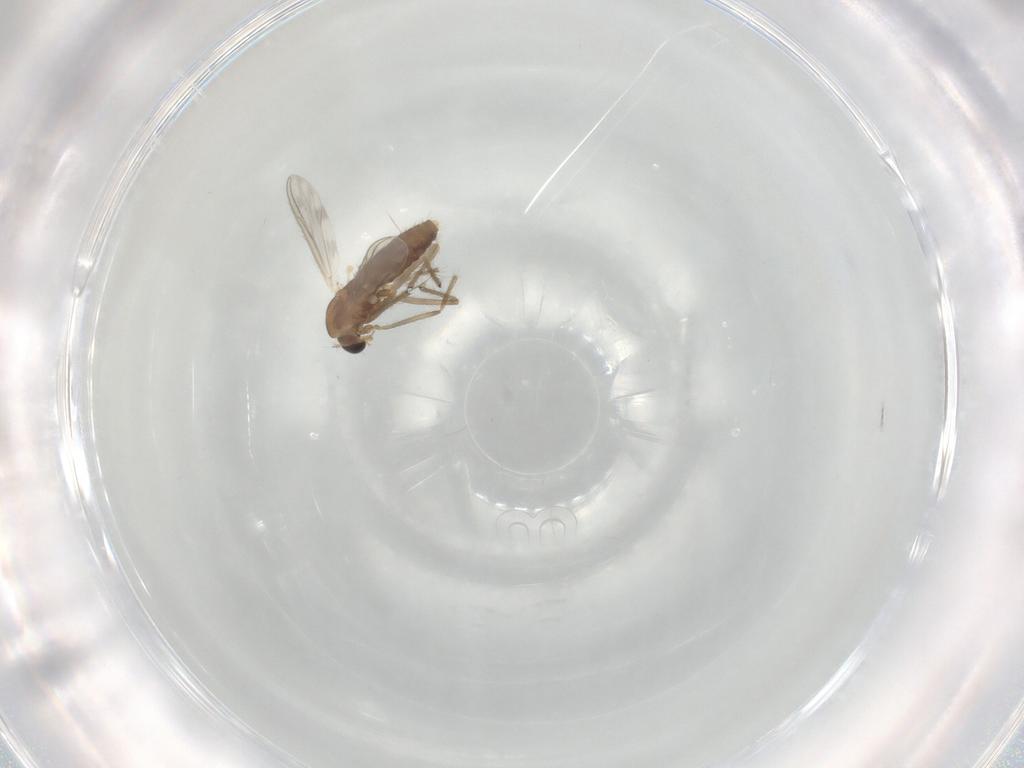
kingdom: Animalia
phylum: Arthropoda
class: Insecta
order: Diptera
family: Chironomidae
